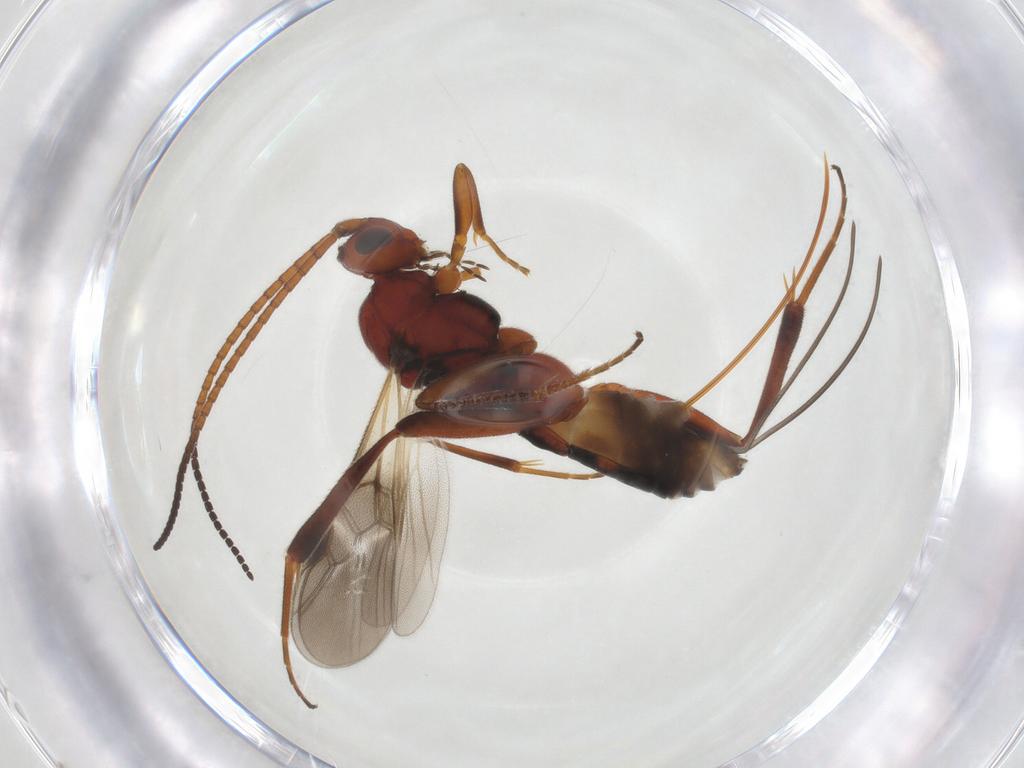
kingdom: Animalia
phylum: Arthropoda
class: Insecta
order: Hymenoptera
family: Braconidae
